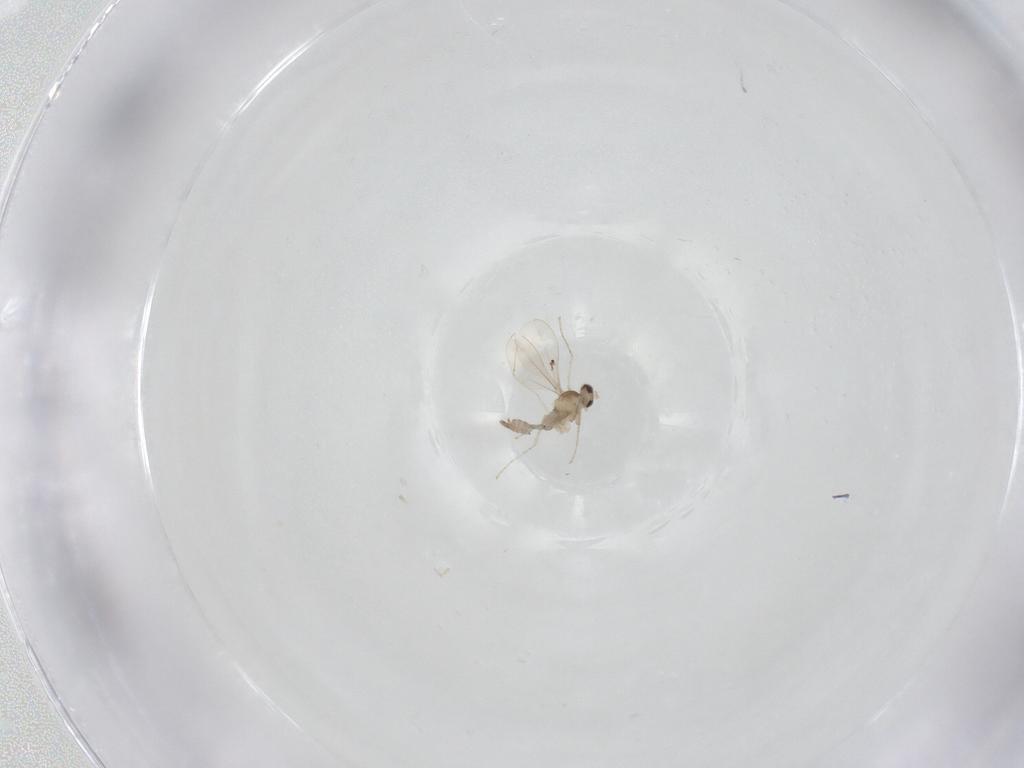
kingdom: Animalia
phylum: Arthropoda
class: Insecta
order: Diptera
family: Cecidomyiidae
